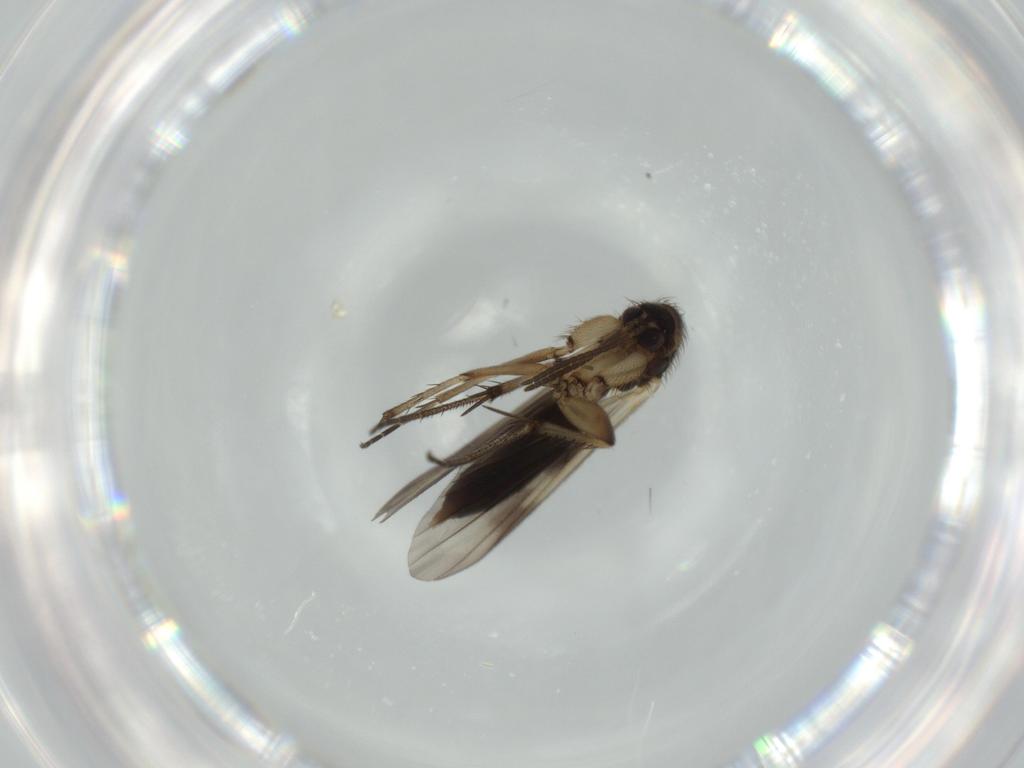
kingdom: Animalia
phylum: Arthropoda
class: Insecta
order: Diptera
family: Mycetophilidae
